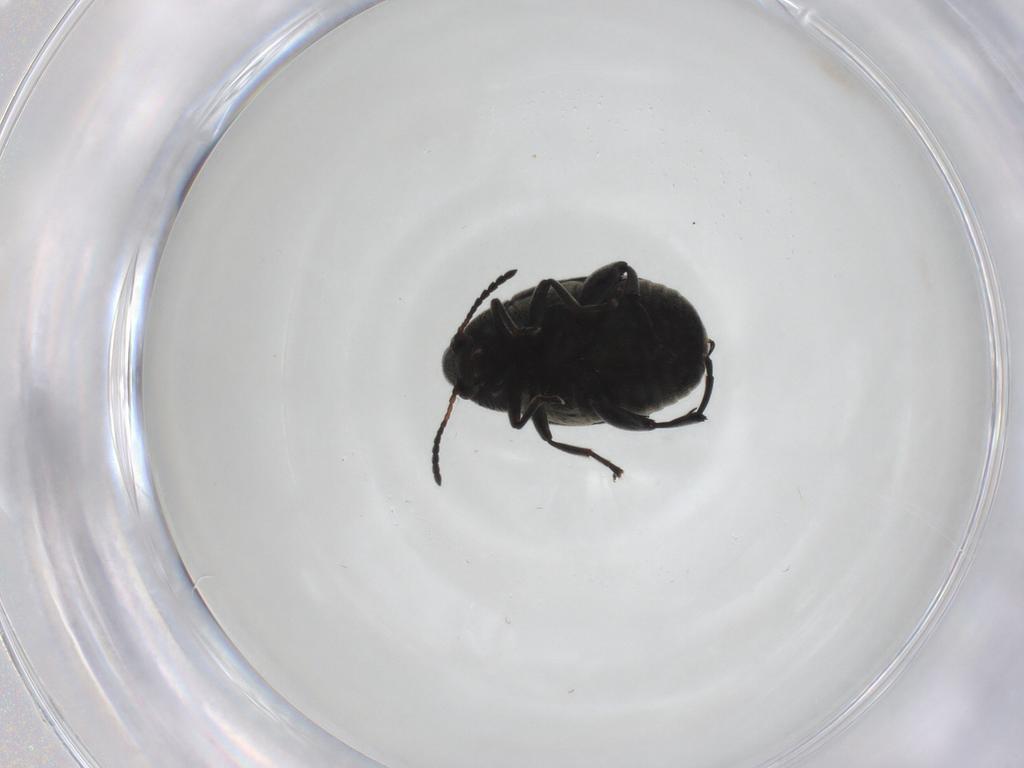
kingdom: Animalia
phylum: Arthropoda
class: Insecta
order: Coleoptera
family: Chrysomelidae
